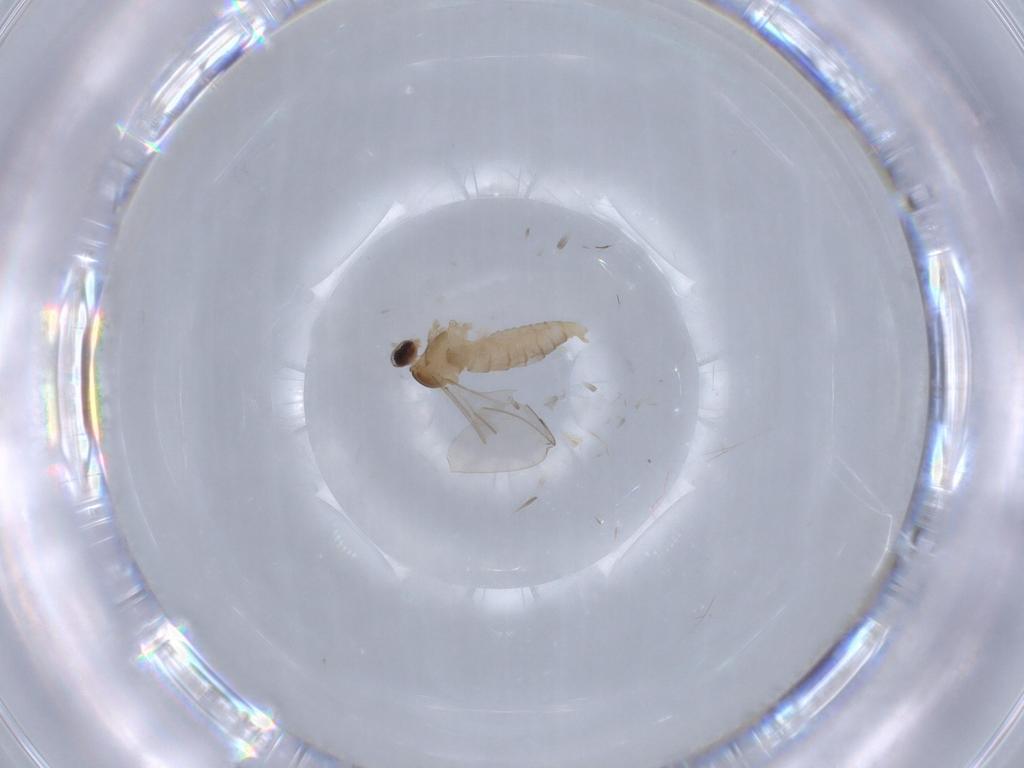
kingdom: Animalia
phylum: Arthropoda
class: Insecta
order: Diptera
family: Cecidomyiidae
